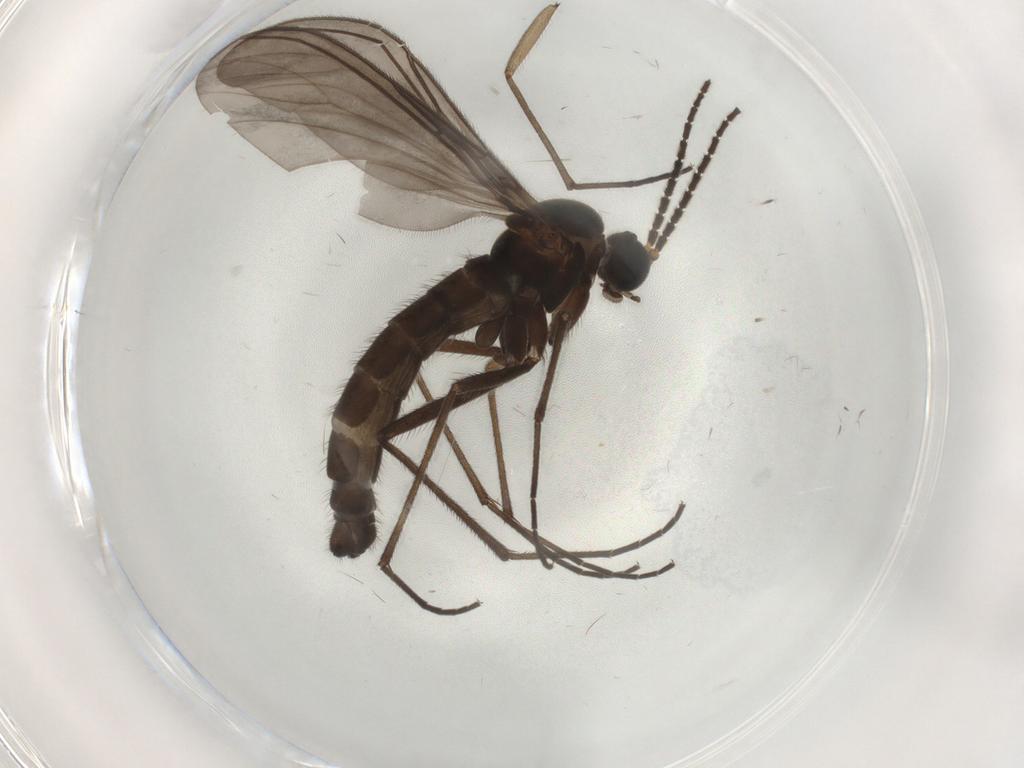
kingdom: Animalia
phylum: Arthropoda
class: Insecta
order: Diptera
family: Sciaridae
